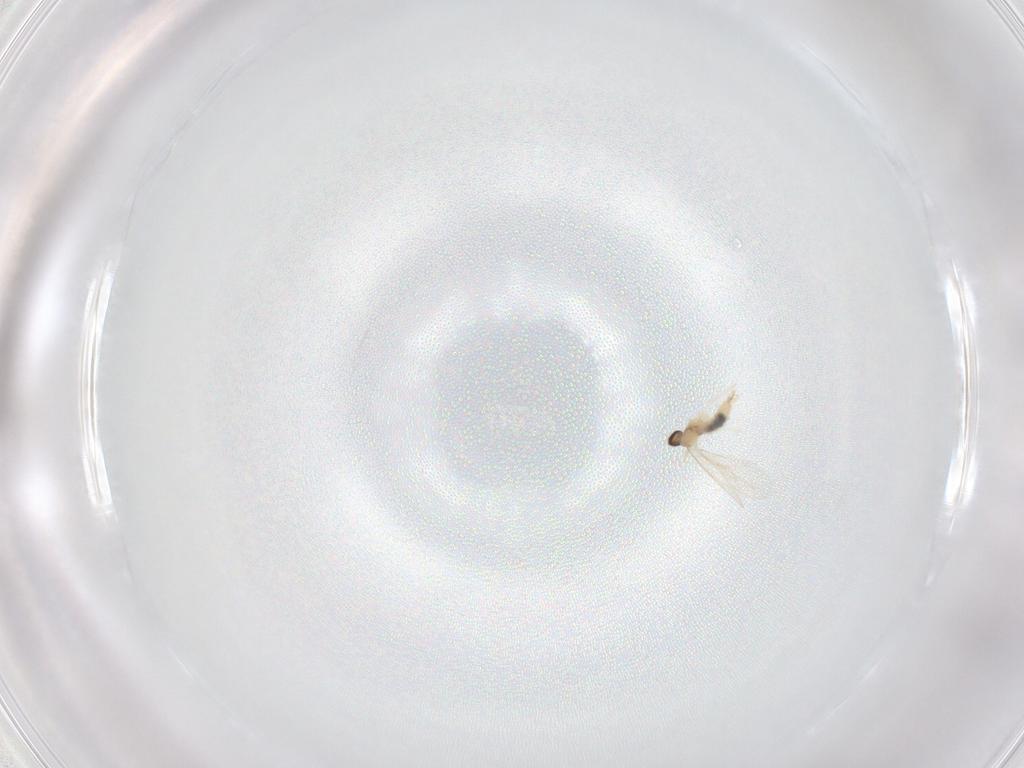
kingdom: Animalia
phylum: Arthropoda
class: Insecta
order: Diptera
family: Cecidomyiidae
